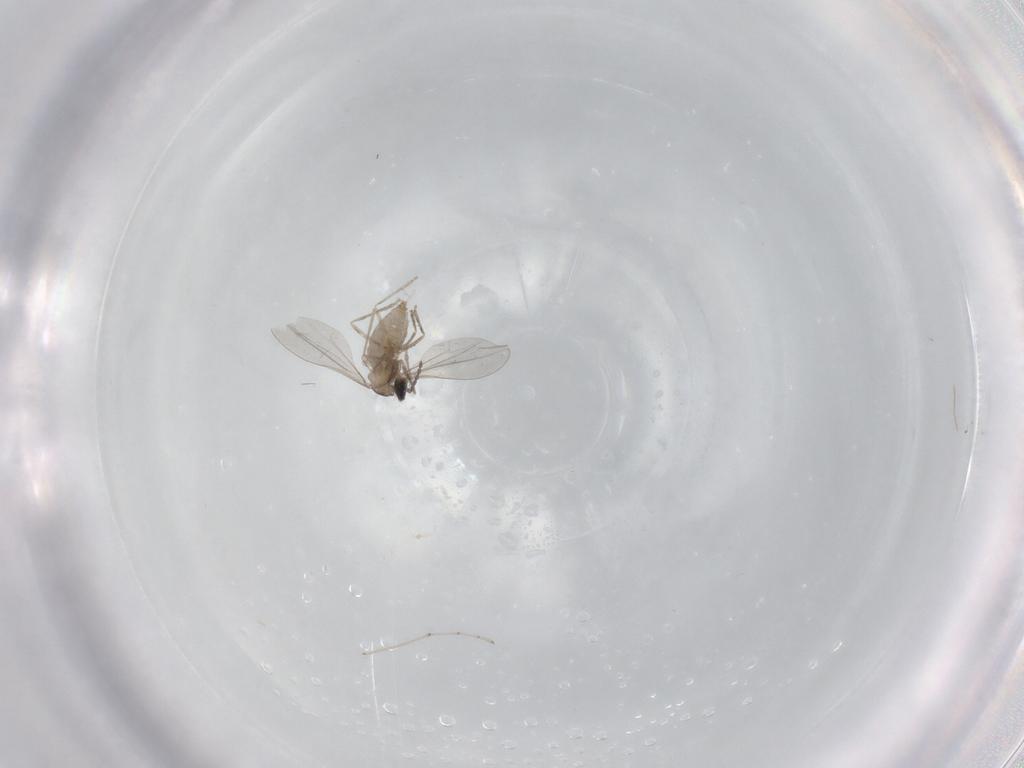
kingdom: Animalia
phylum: Arthropoda
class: Insecta
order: Diptera
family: Cecidomyiidae
